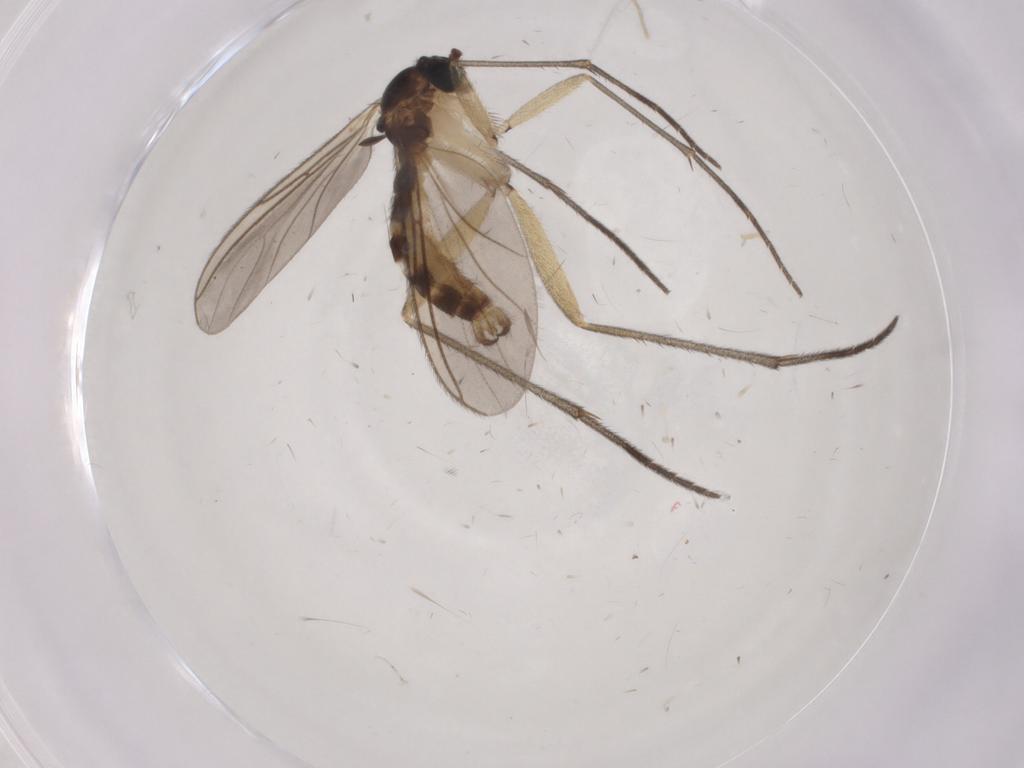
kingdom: Animalia
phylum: Arthropoda
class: Insecta
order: Diptera
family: Sciaridae
